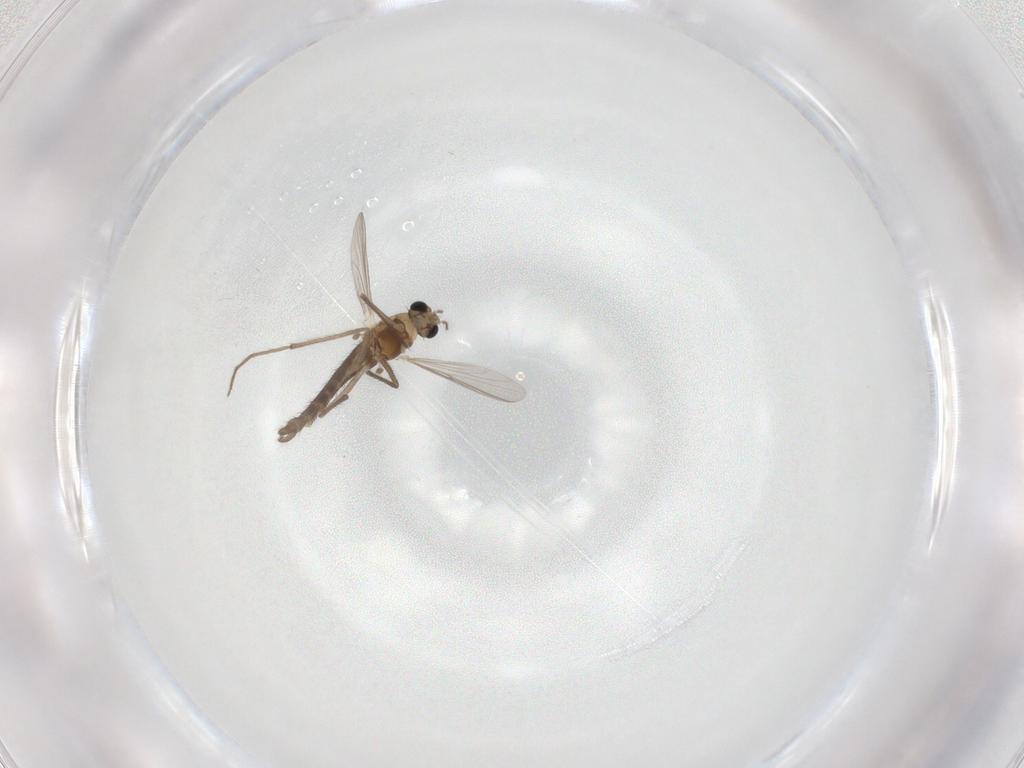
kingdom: Animalia
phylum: Arthropoda
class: Insecta
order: Diptera
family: Chironomidae
